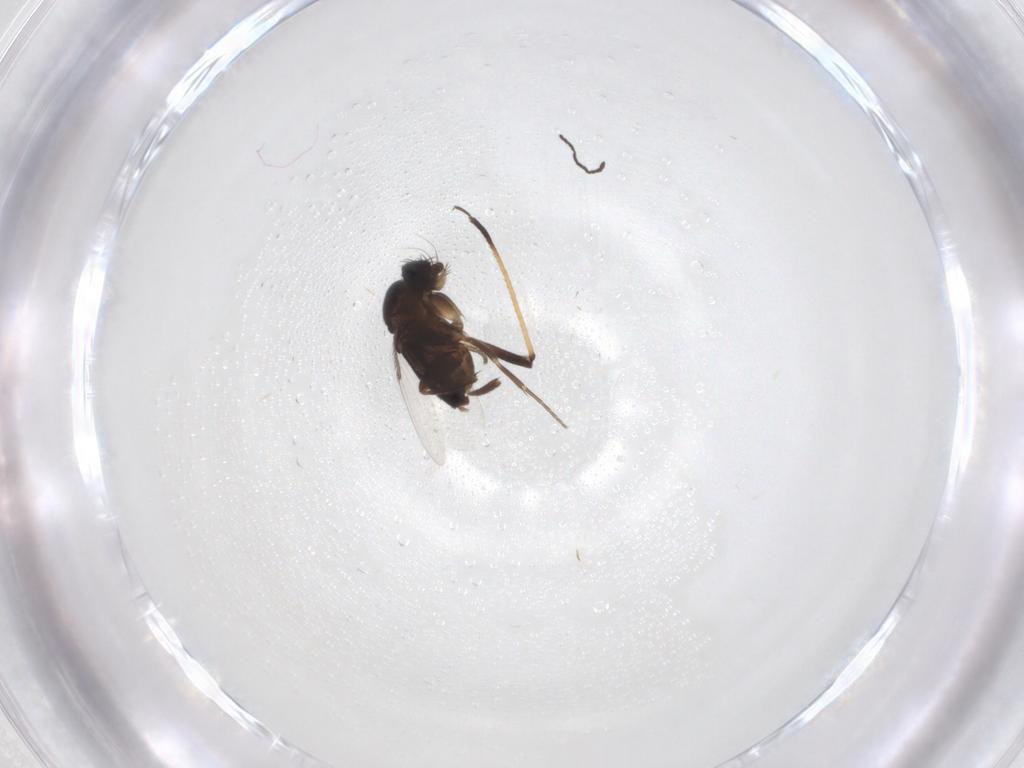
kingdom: Animalia
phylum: Arthropoda
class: Insecta
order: Diptera
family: Phoridae
